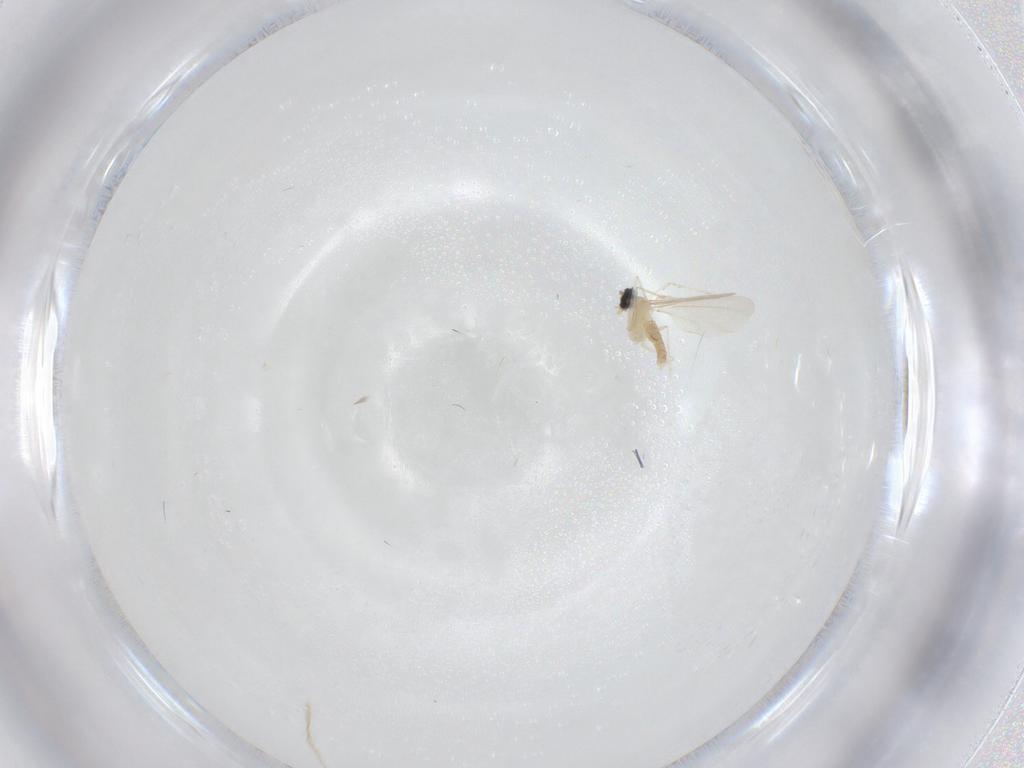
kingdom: Animalia
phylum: Arthropoda
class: Insecta
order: Diptera
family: Cecidomyiidae
